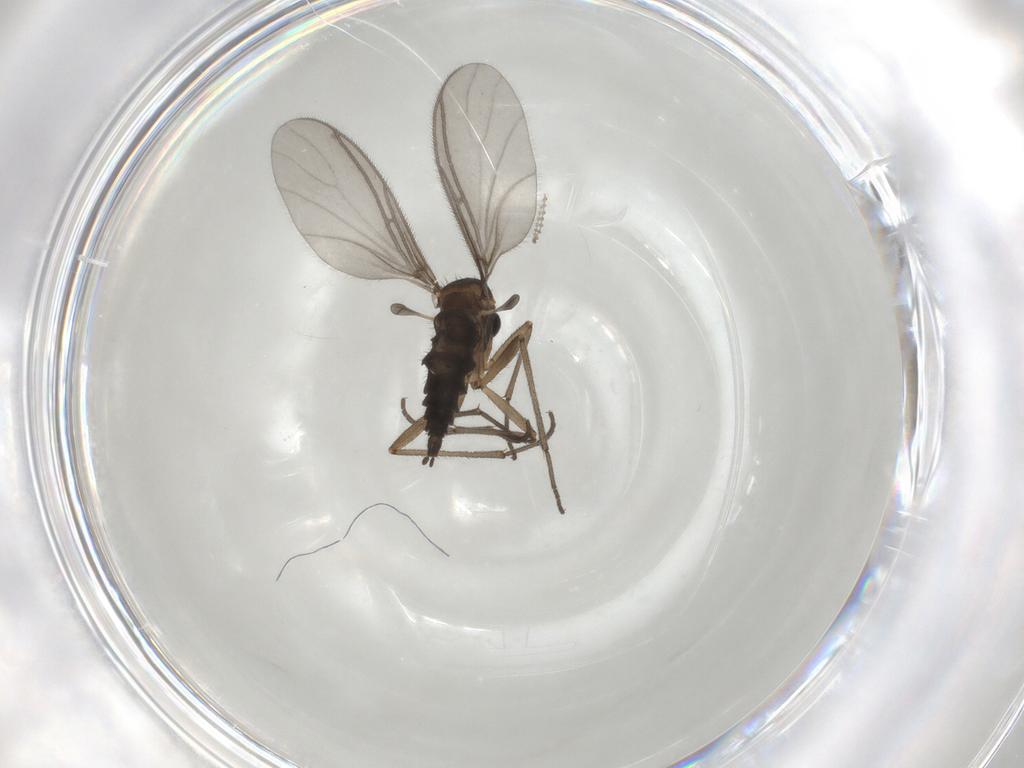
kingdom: Animalia
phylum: Arthropoda
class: Insecta
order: Diptera
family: Sciaridae
